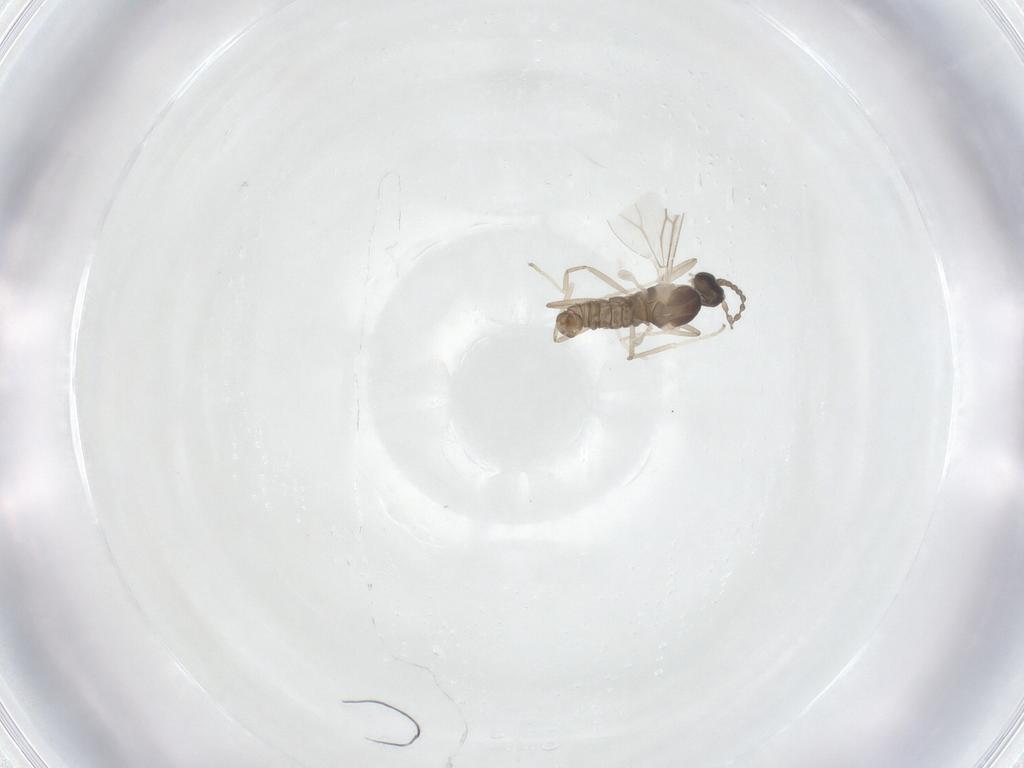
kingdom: Animalia
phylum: Arthropoda
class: Insecta
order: Diptera
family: Cecidomyiidae
